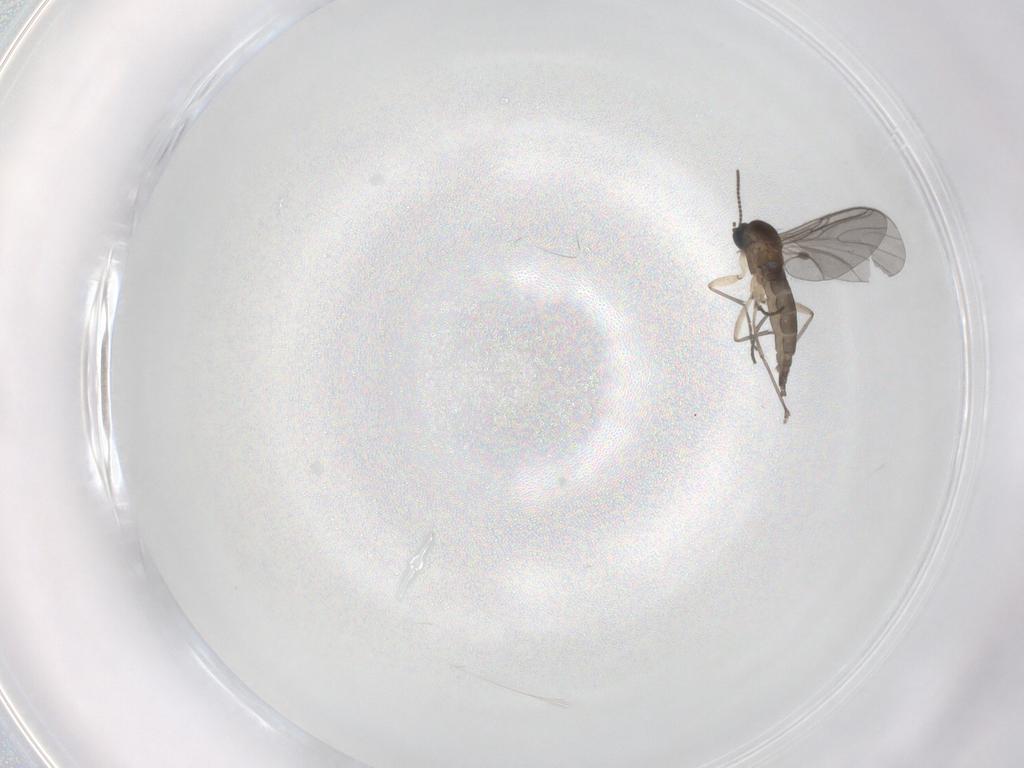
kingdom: Animalia
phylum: Arthropoda
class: Insecta
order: Diptera
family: Sciaridae
